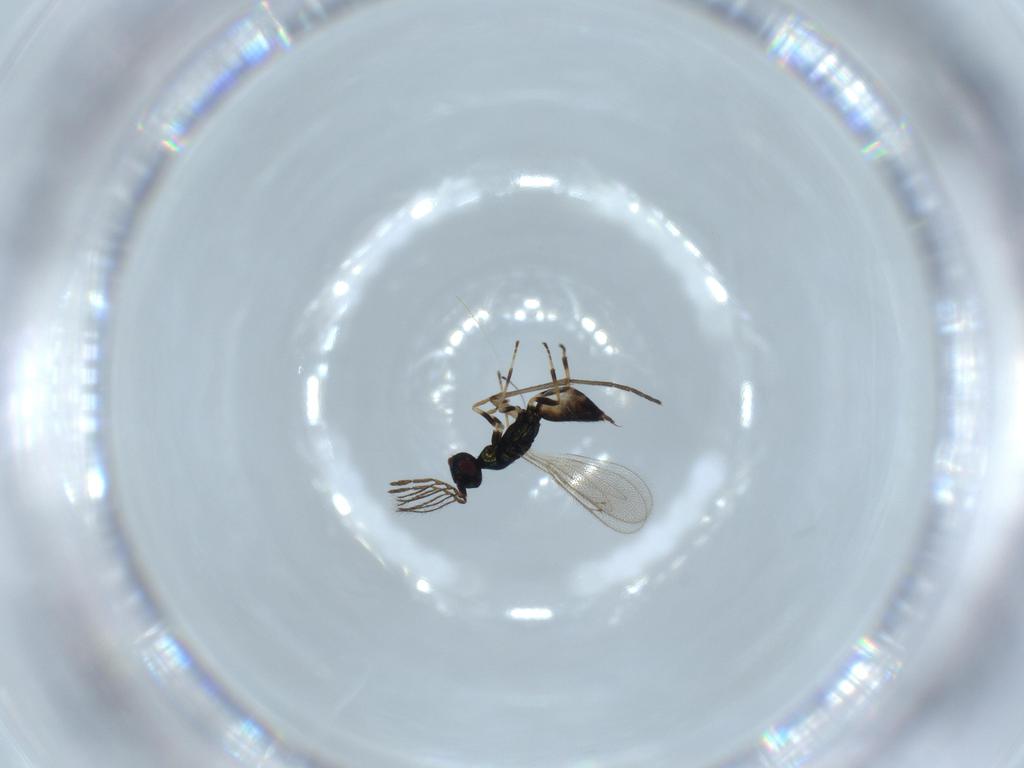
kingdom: Animalia
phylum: Arthropoda
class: Insecta
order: Hymenoptera
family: Eulophidae
